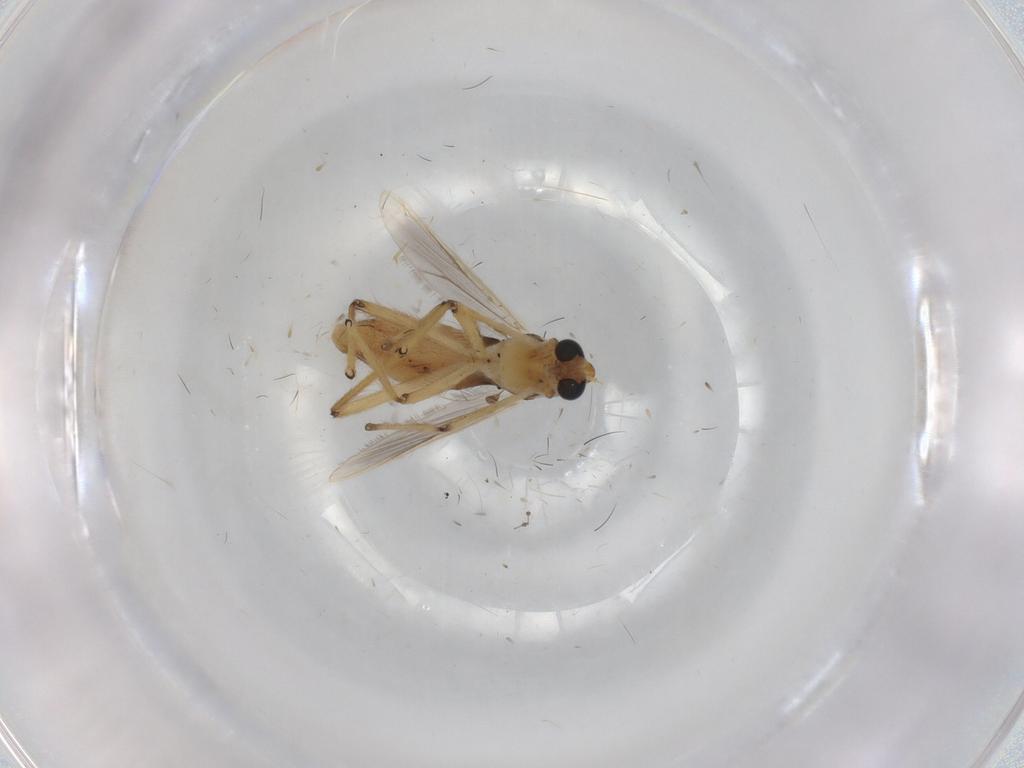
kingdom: Animalia
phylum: Arthropoda
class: Insecta
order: Diptera
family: Chironomidae
